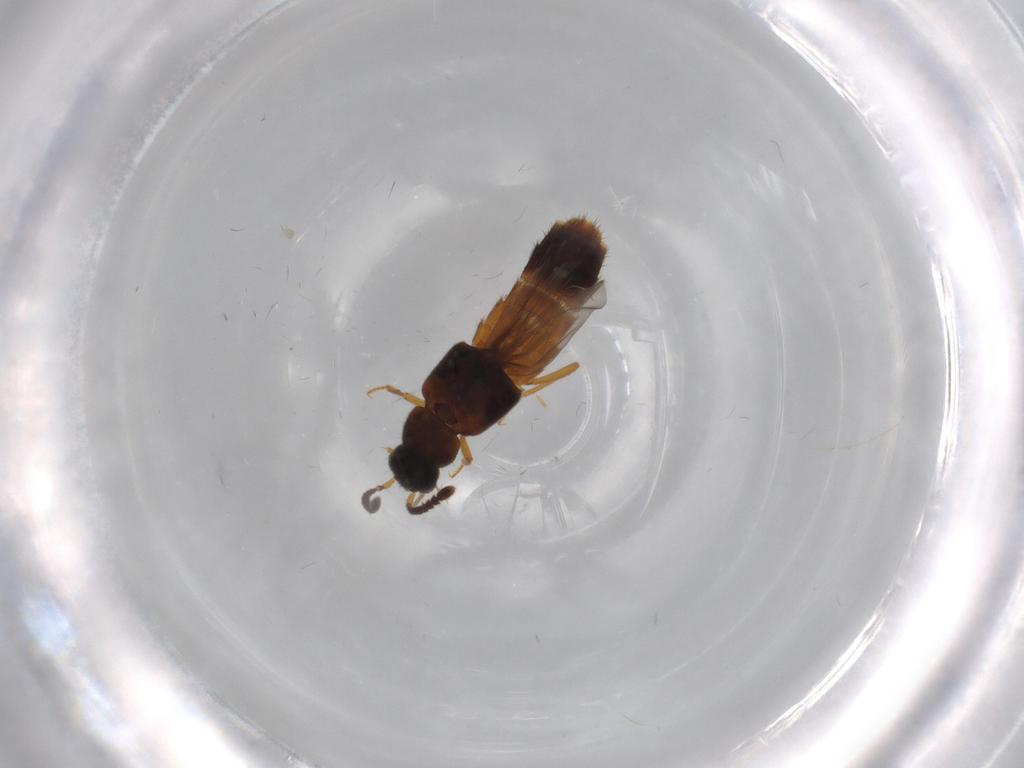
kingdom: Animalia
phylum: Arthropoda
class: Insecta
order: Coleoptera
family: Staphylinidae
